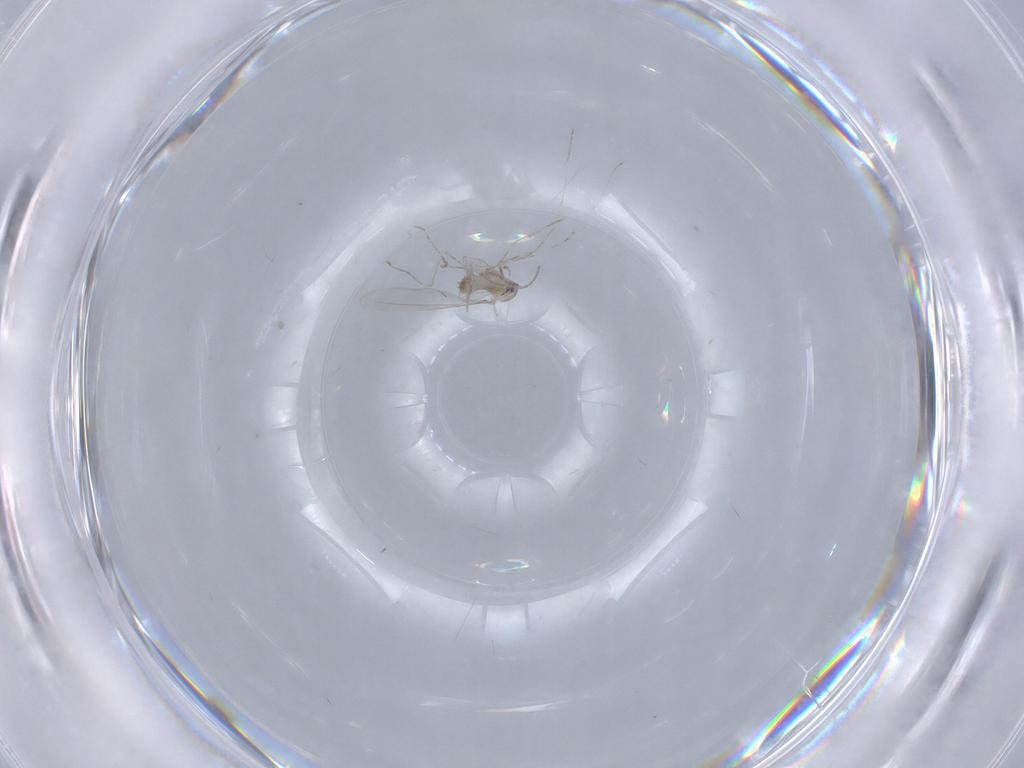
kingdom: Animalia
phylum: Arthropoda
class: Insecta
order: Diptera
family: Cecidomyiidae
